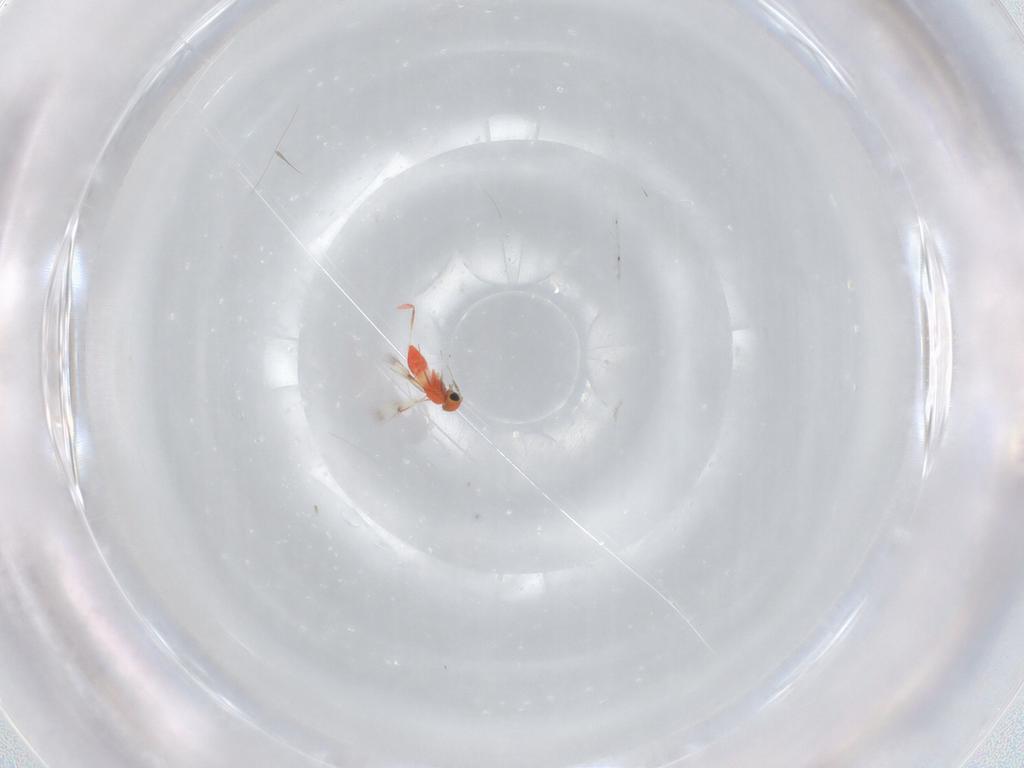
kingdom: Animalia
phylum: Arthropoda
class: Insecta
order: Hymenoptera
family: Trichogrammatidae
